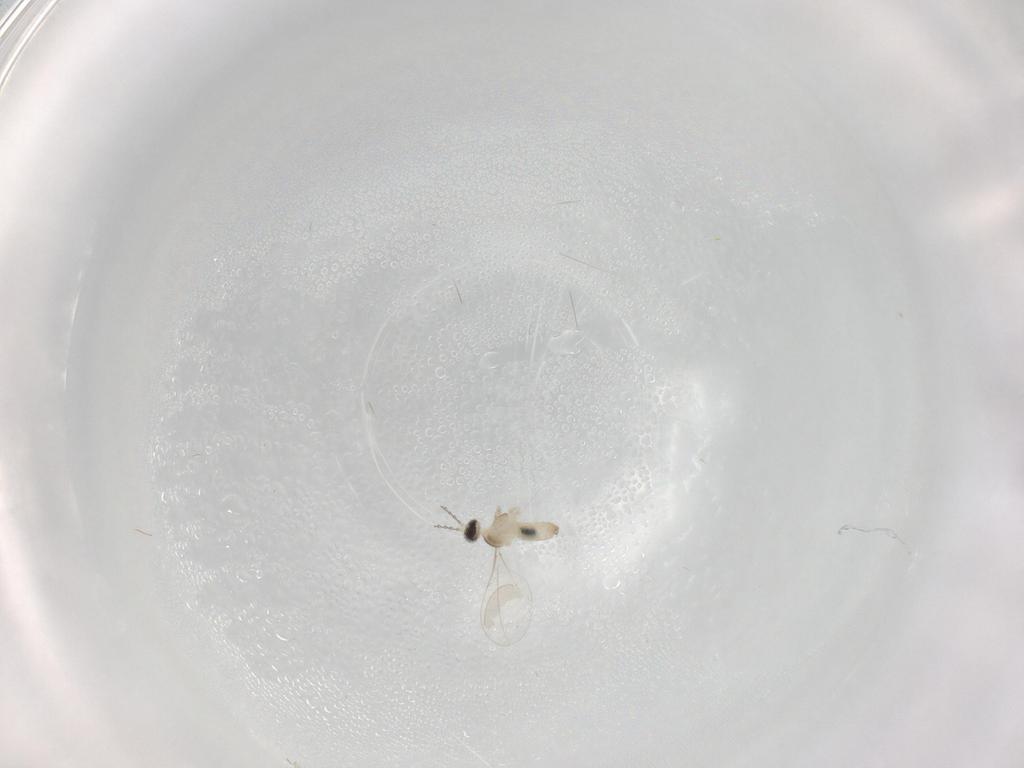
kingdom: Animalia
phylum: Arthropoda
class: Insecta
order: Diptera
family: Cecidomyiidae
